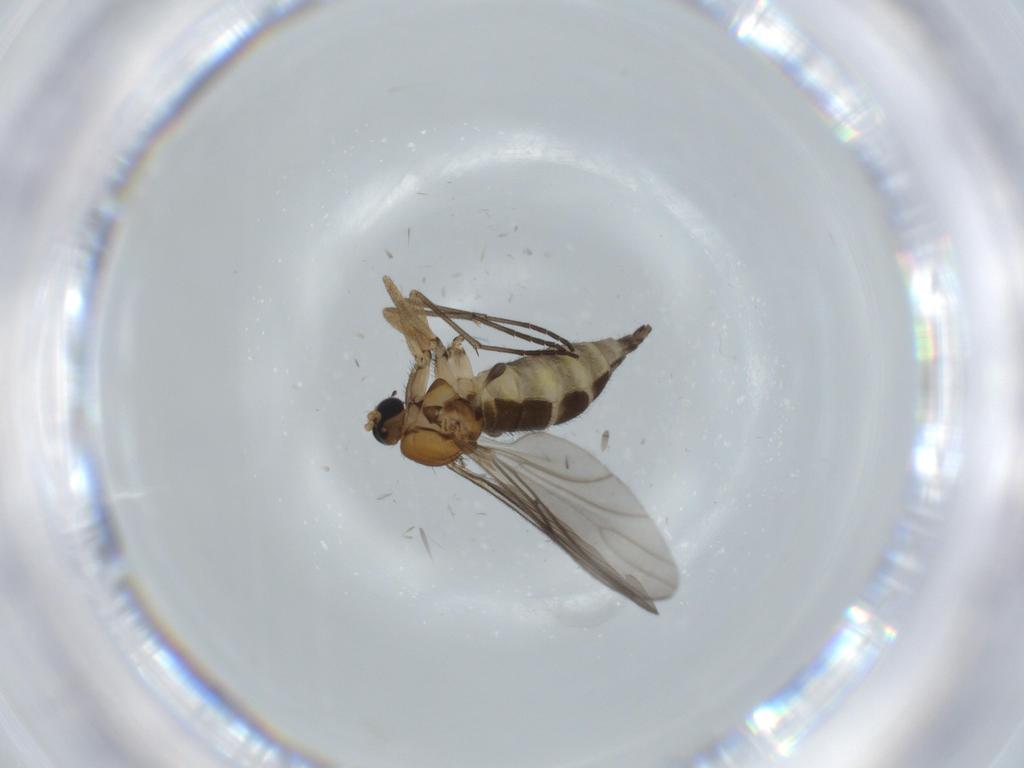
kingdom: Animalia
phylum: Arthropoda
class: Insecta
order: Diptera
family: Sciaridae
